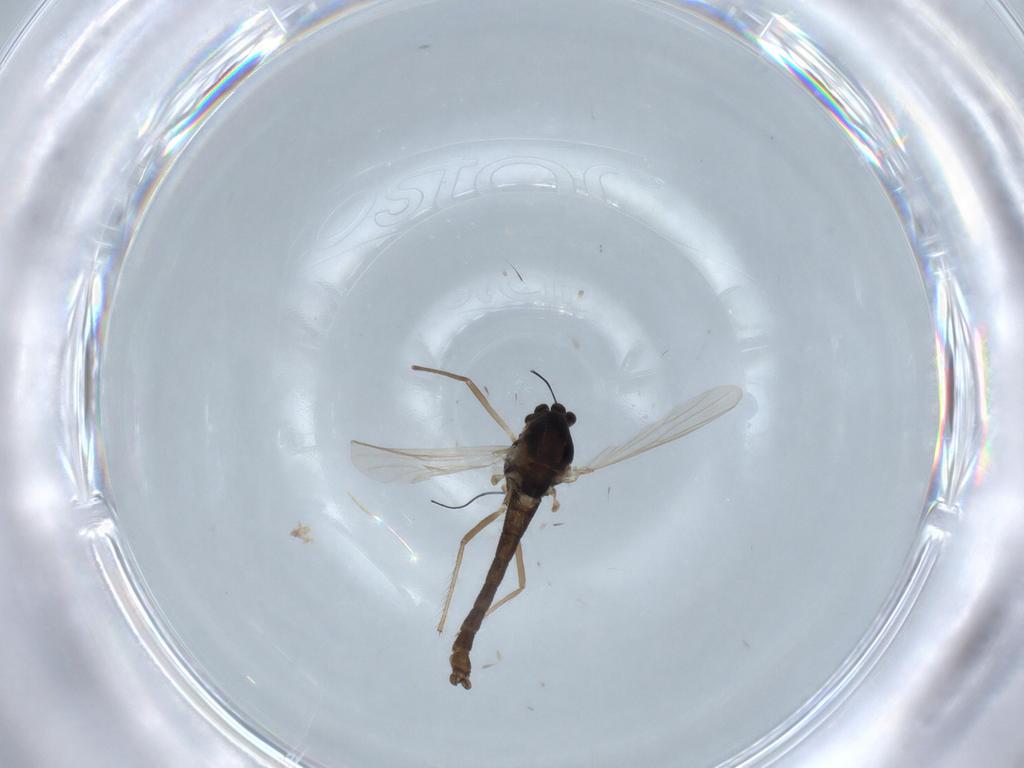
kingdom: Animalia
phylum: Arthropoda
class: Insecta
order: Diptera
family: Chironomidae
